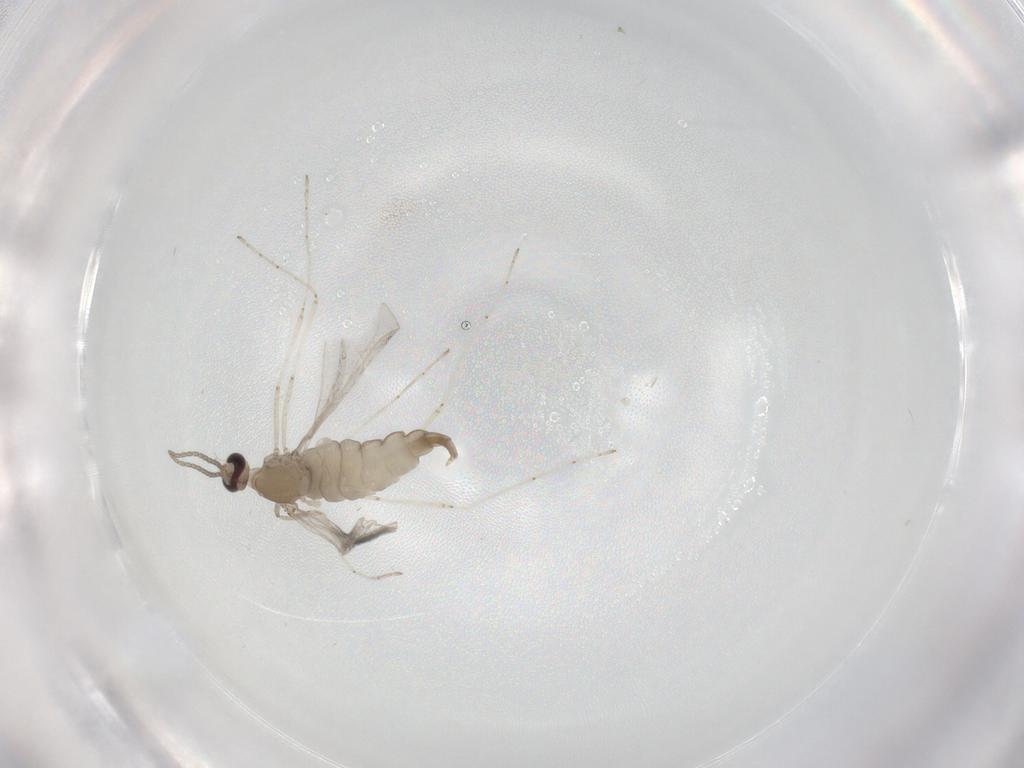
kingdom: Animalia
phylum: Arthropoda
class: Insecta
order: Diptera
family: Cecidomyiidae
